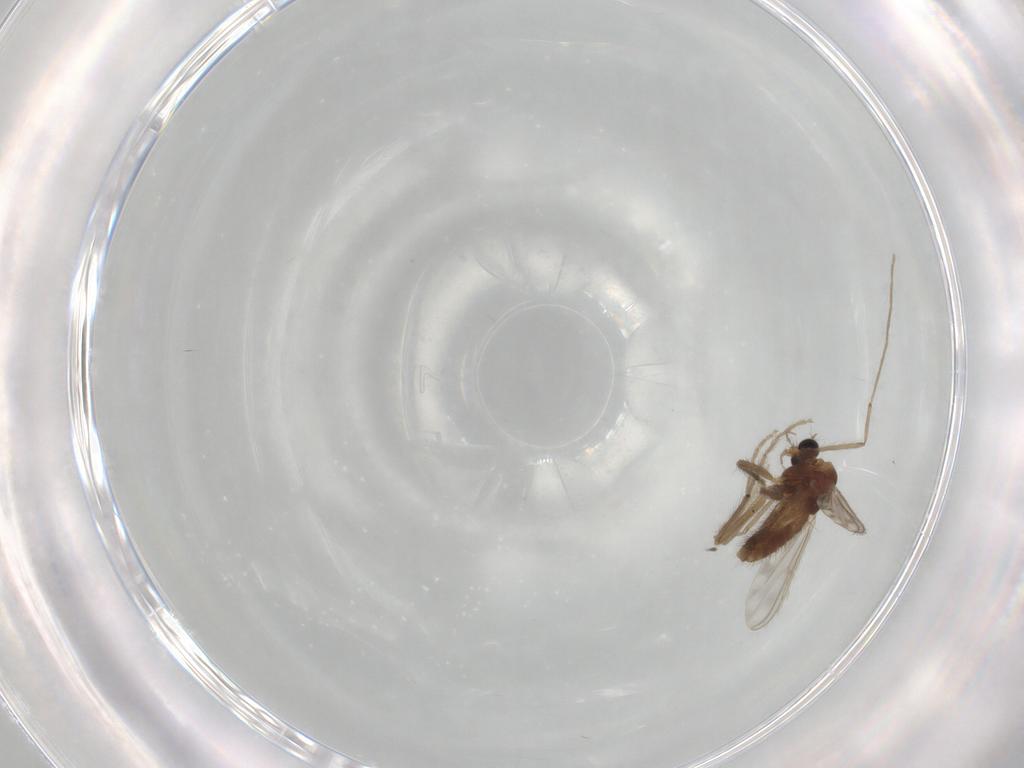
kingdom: Animalia
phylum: Arthropoda
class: Insecta
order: Diptera
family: Chironomidae
